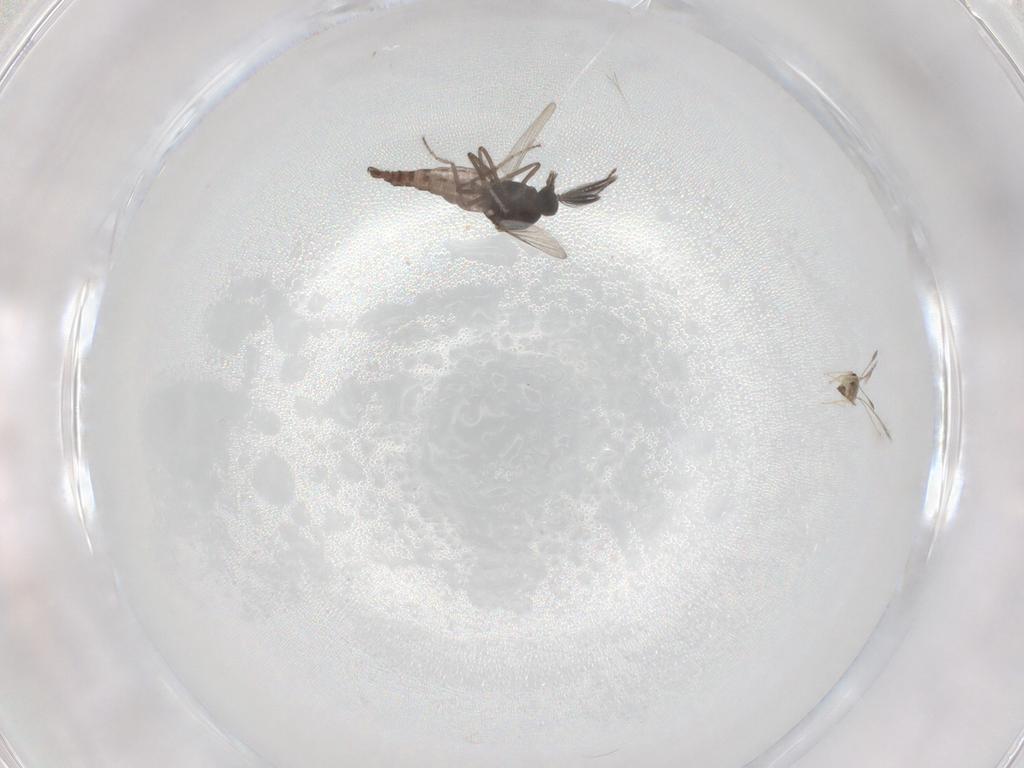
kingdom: Animalia
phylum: Arthropoda
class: Insecta
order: Diptera
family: Ceratopogonidae
